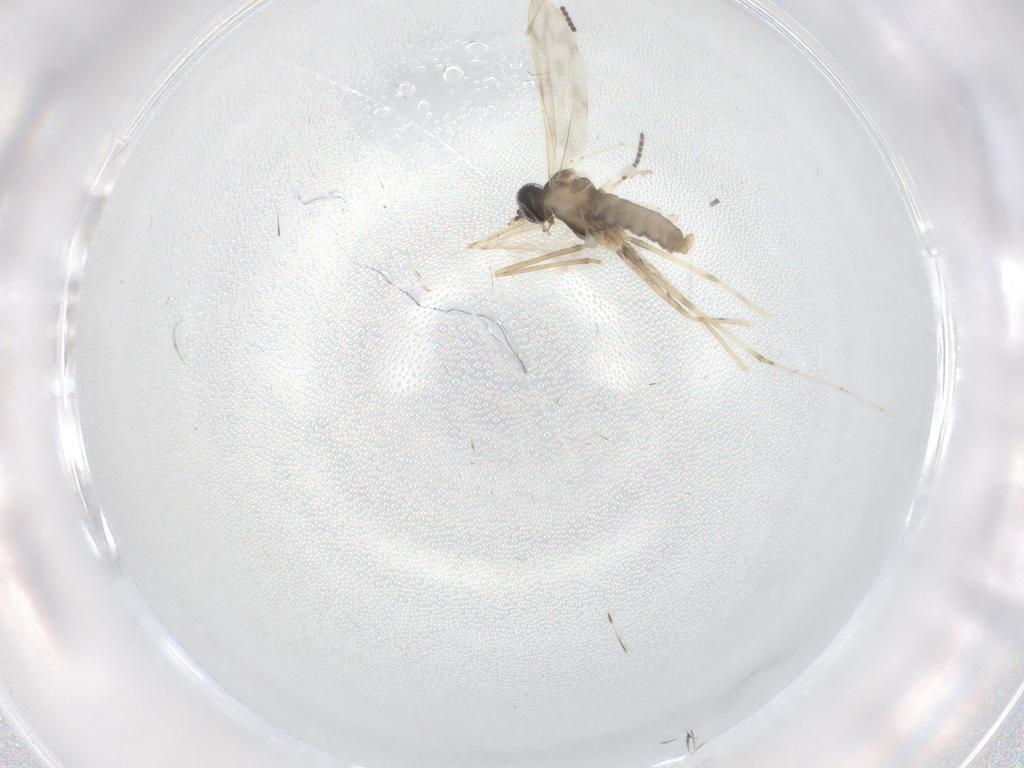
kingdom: Animalia
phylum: Arthropoda
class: Insecta
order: Diptera
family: Cecidomyiidae
